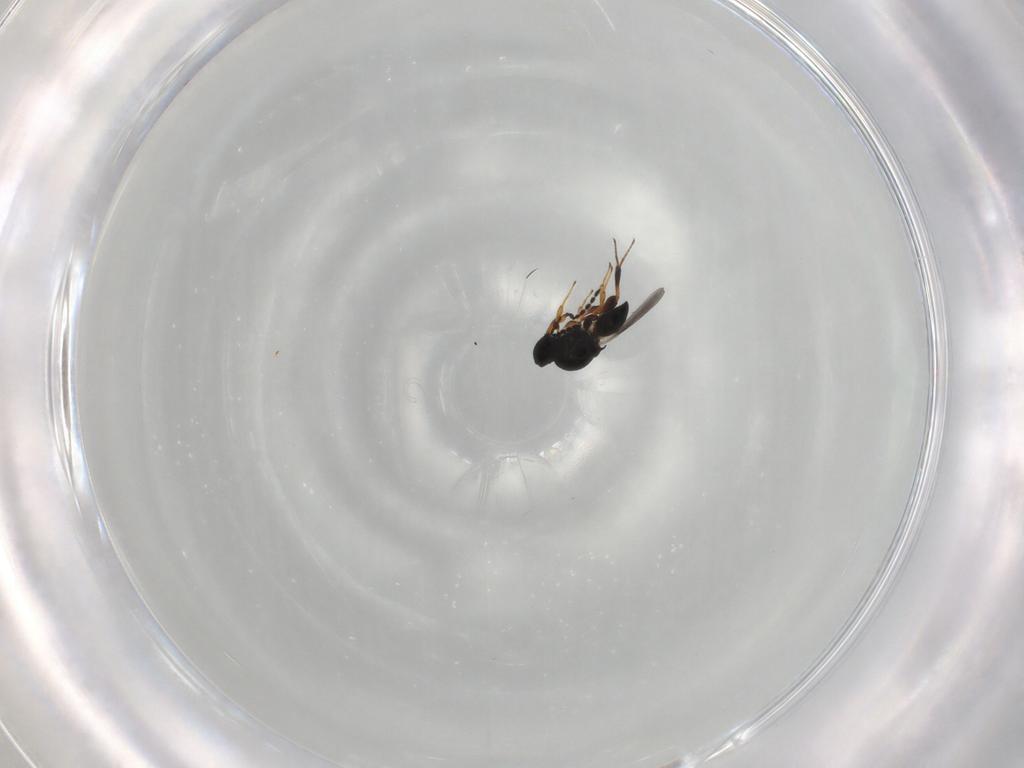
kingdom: Animalia
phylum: Arthropoda
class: Insecta
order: Hymenoptera
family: Platygastridae
